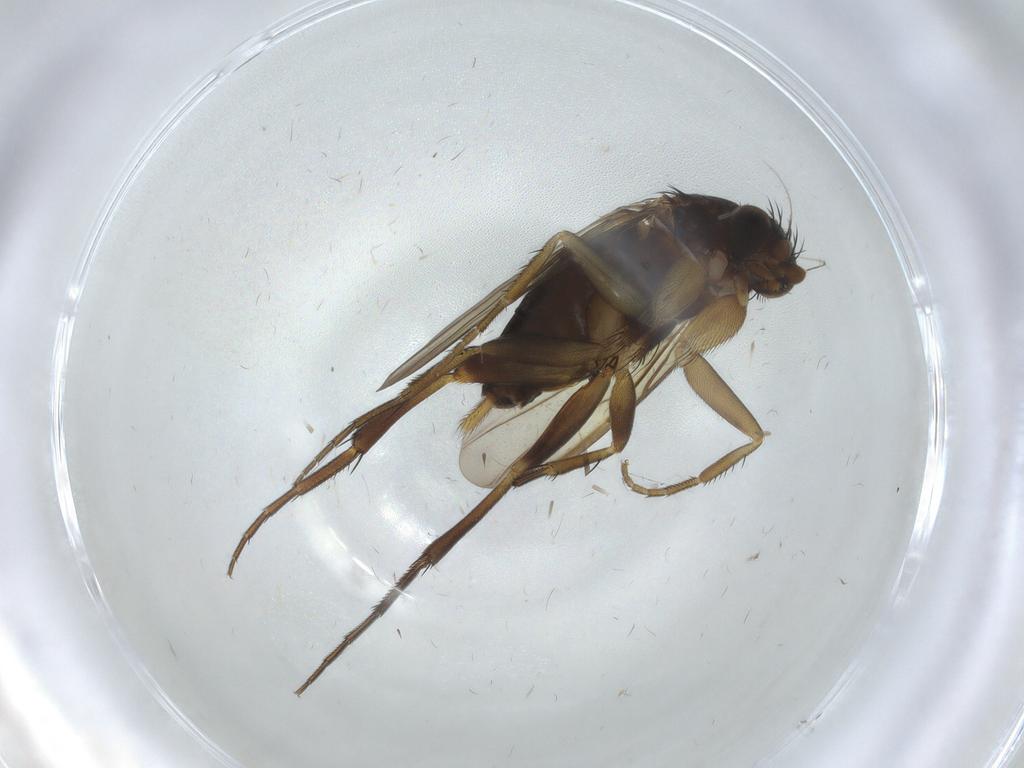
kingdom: Animalia
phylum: Arthropoda
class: Insecta
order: Diptera
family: Phoridae
